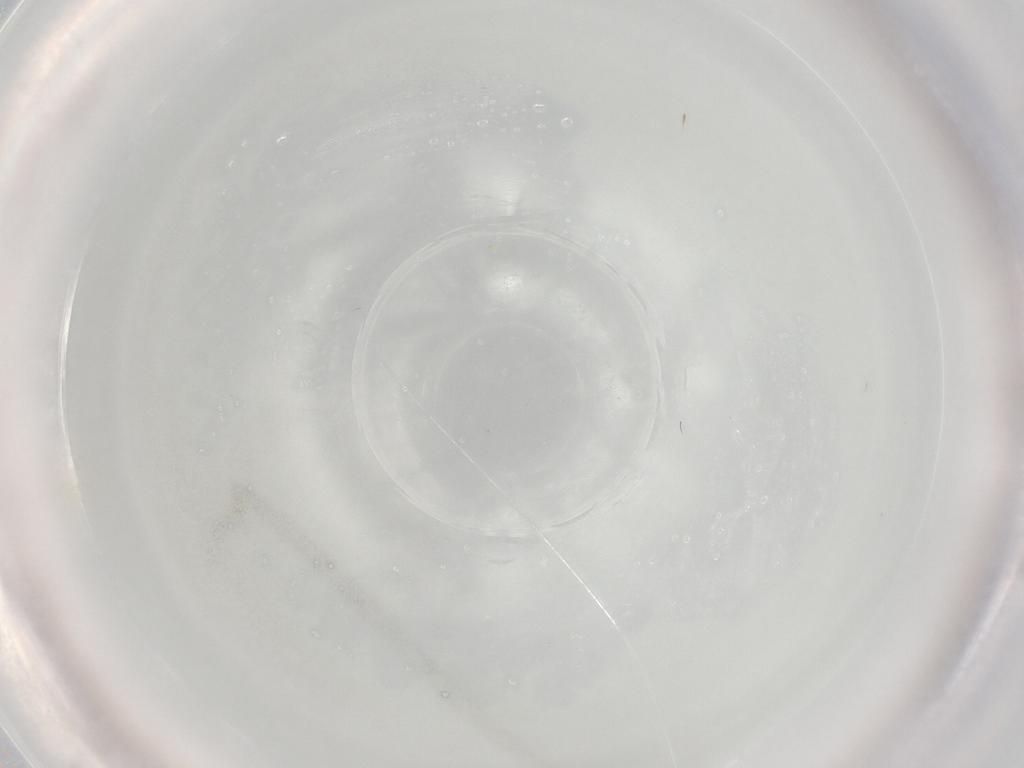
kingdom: Animalia
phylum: Arthropoda
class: Insecta
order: Diptera
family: Cecidomyiidae
